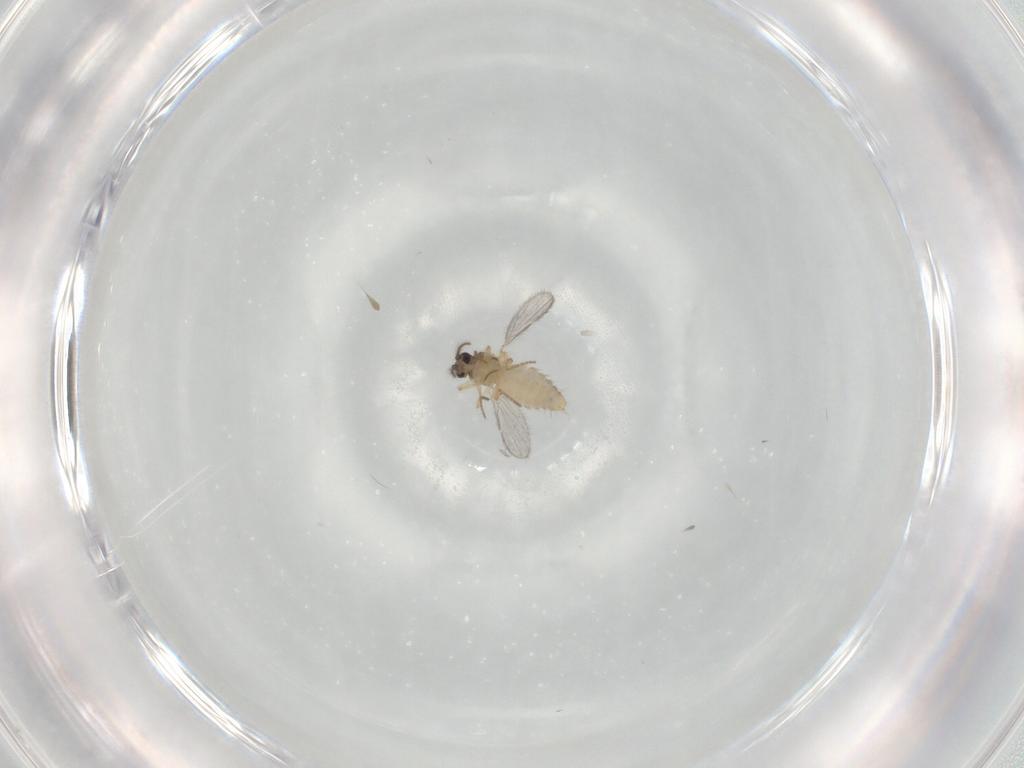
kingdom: Animalia
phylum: Arthropoda
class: Insecta
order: Diptera
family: Ceratopogonidae
